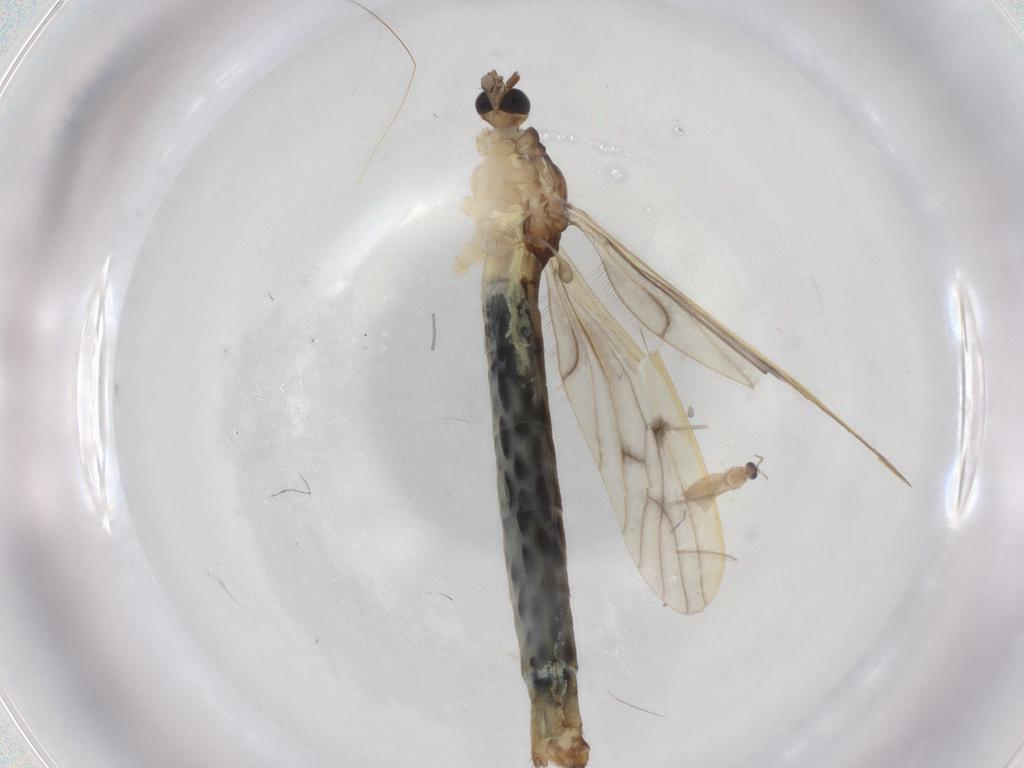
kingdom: Animalia
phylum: Arthropoda
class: Insecta
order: Diptera
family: Limoniidae
